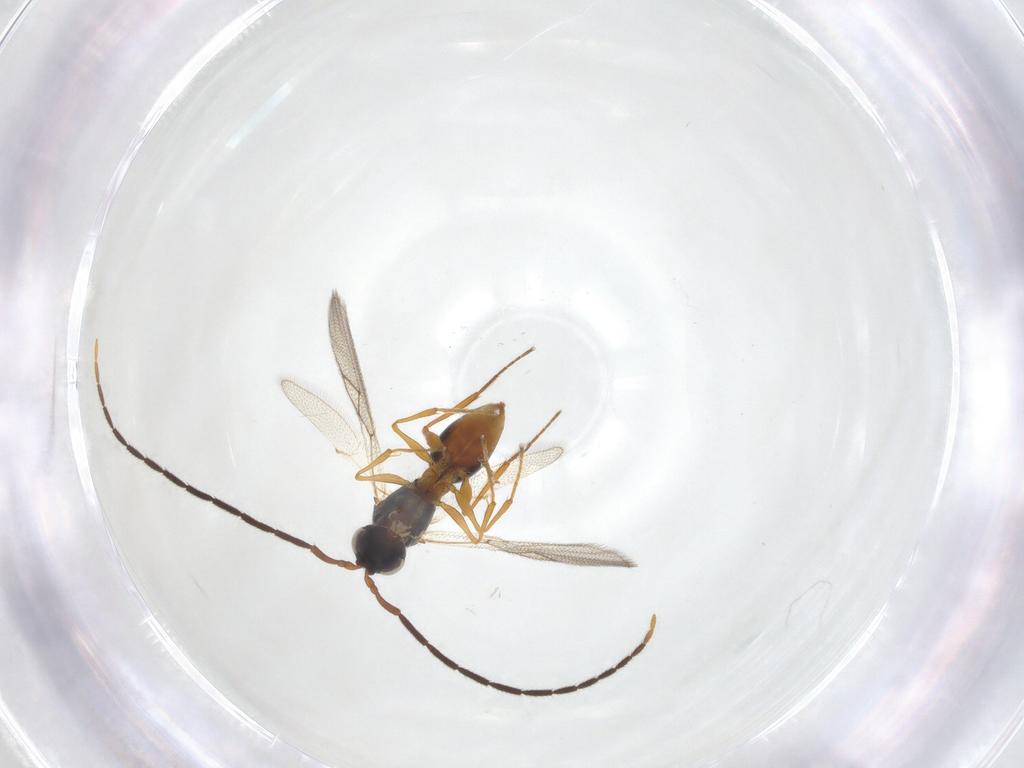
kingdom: Animalia
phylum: Arthropoda
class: Insecta
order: Hymenoptera
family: Figitidae
